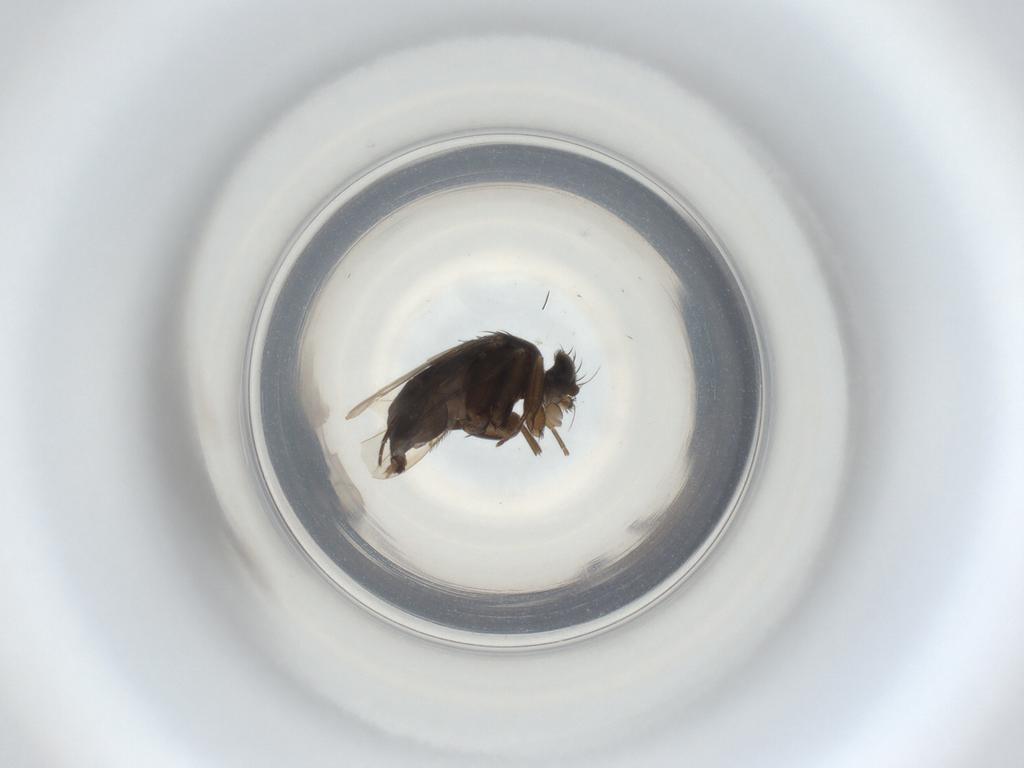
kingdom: Animalia
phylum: Arthropoda
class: Insecta
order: Diptera
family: Phoridae
